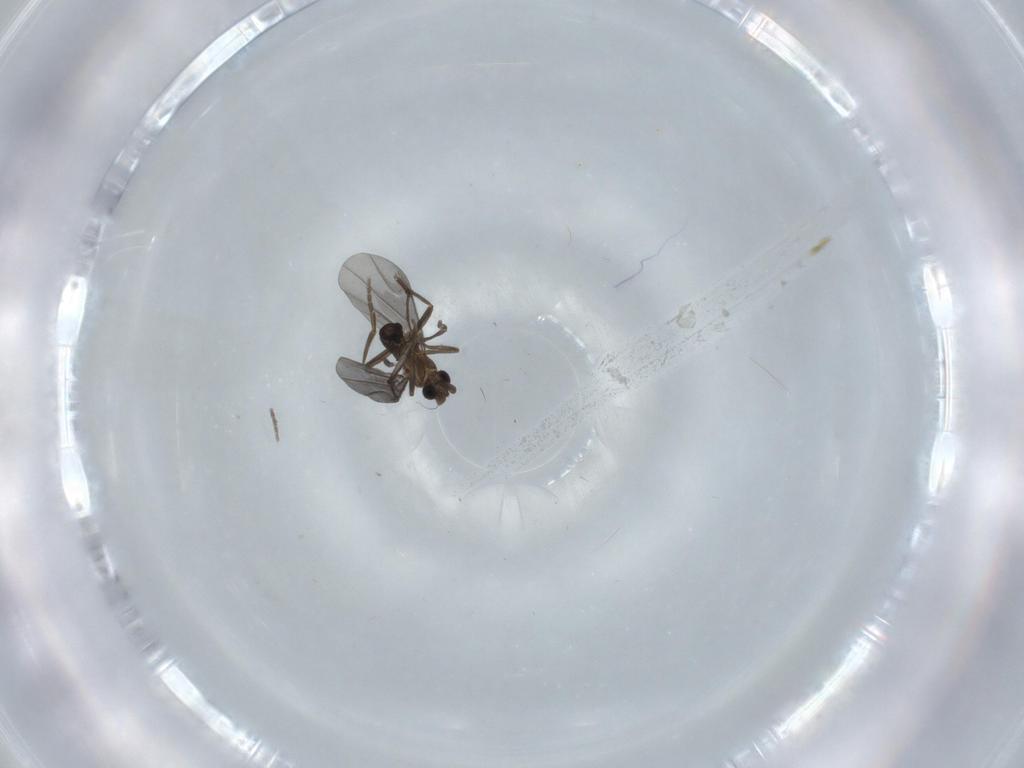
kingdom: Animalia
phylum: Arthropoda
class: Insecta
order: Diptera
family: Phoridae
